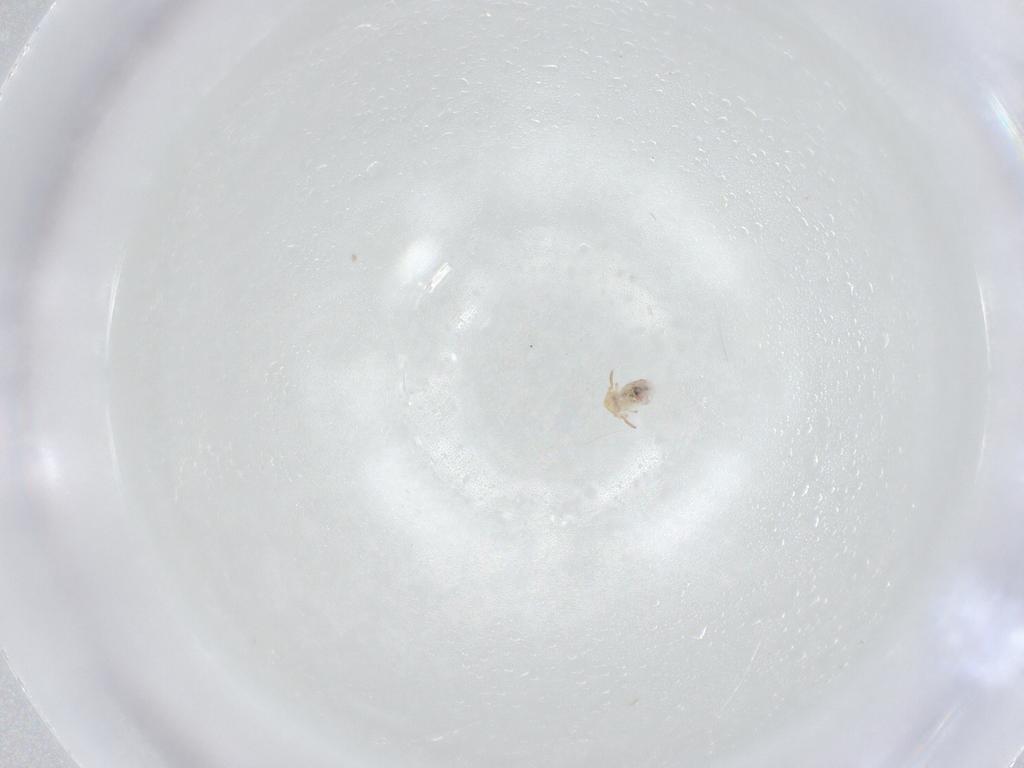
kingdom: Animalia
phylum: Arthropoda
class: Collembola
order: Symphypleona
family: Bourletiellidae
